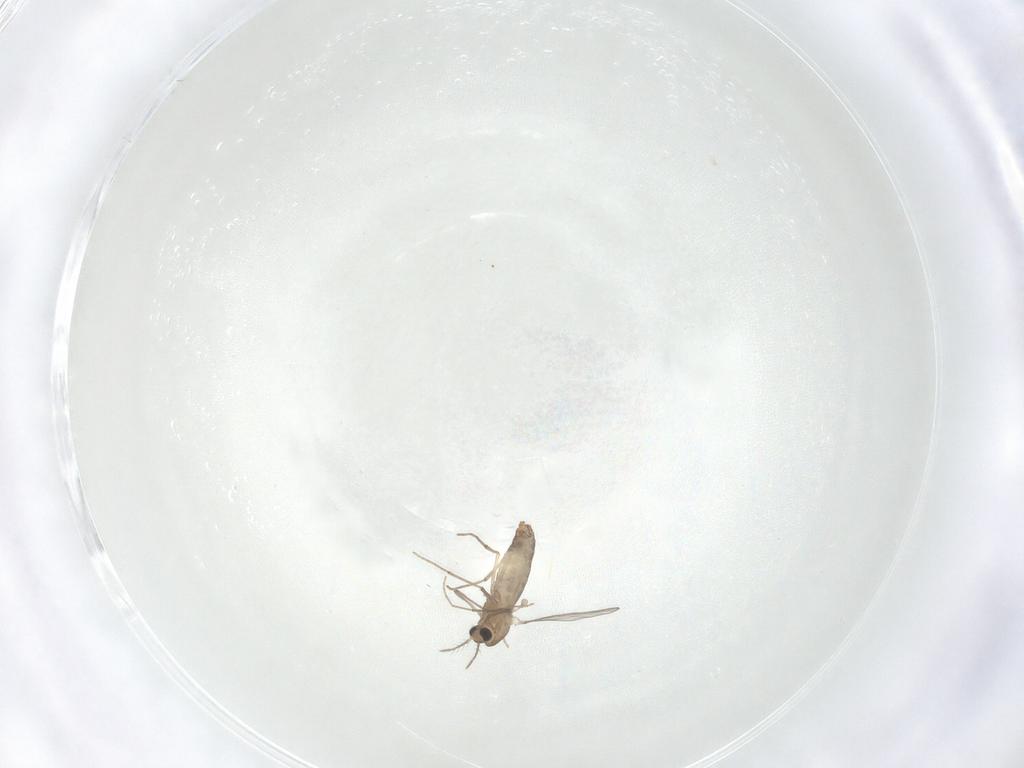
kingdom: Animalia
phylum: Arthropoda
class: Insecta
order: Diptera
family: Chironomidae
